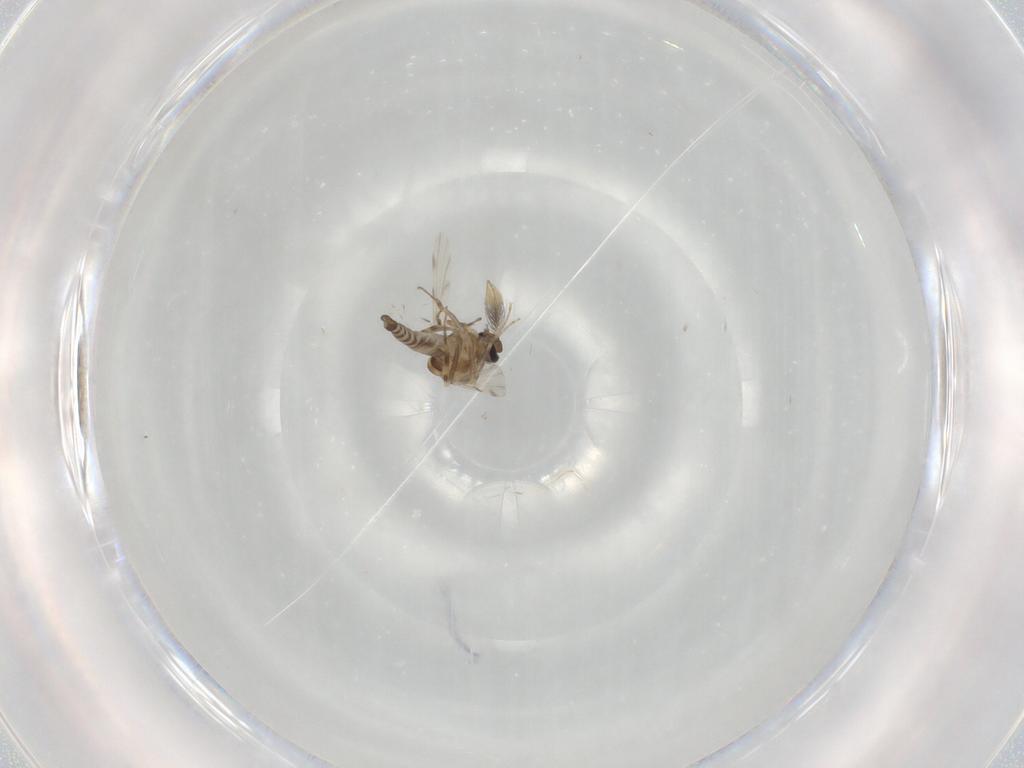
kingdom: Animalia
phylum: Arthropoda
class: Insecta
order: Diptera
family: Ceratopogonidae
